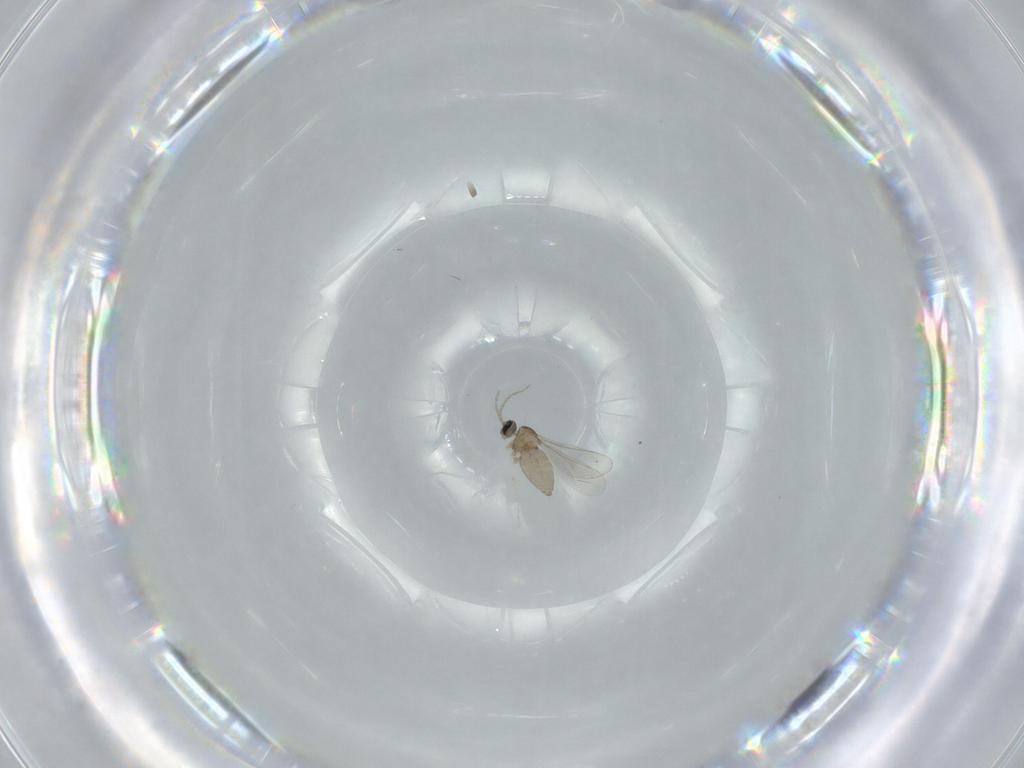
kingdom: Animalia
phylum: Arthropoda
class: Insecta
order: Diptera
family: Cecidomyiidae
